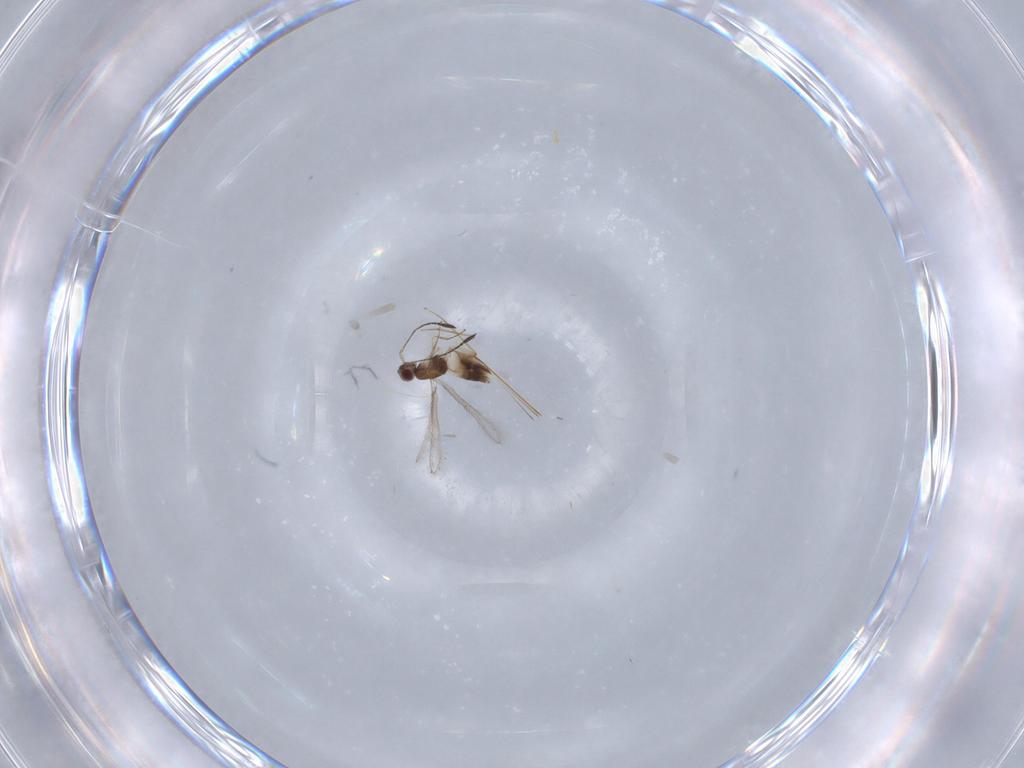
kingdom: Animalia
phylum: Arthropoda
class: Insecta
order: Hymenoptera
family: Mymaridae
